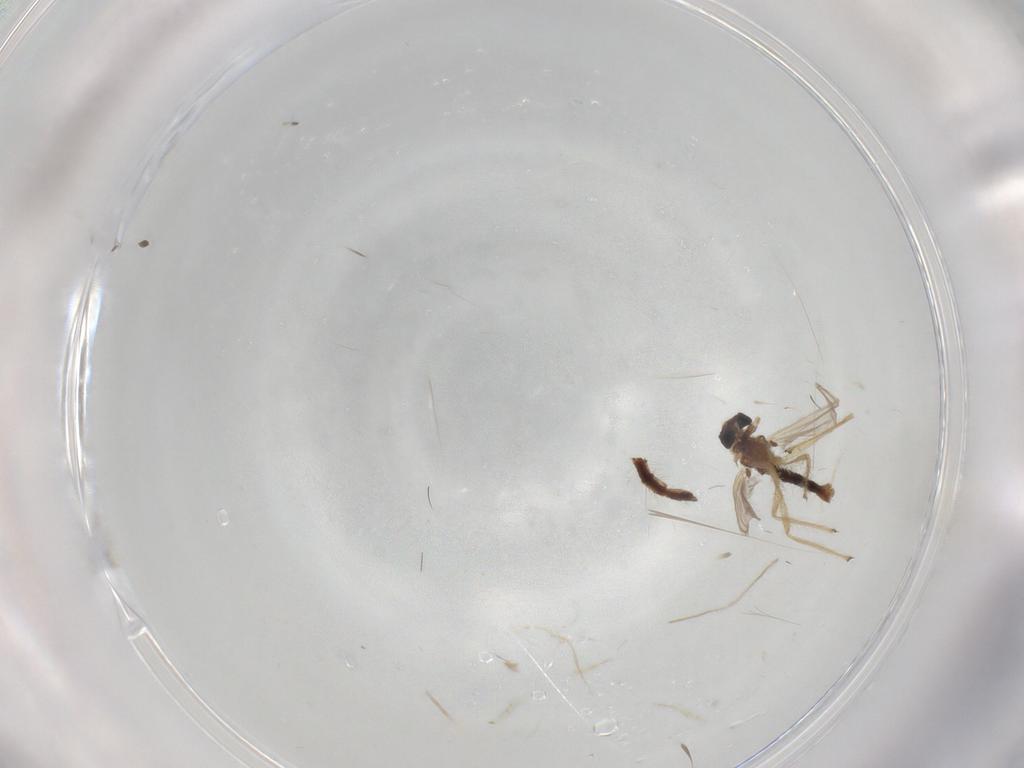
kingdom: Animalia
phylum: Arthropoda
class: Insecta
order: Diptera
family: Chironomidae
